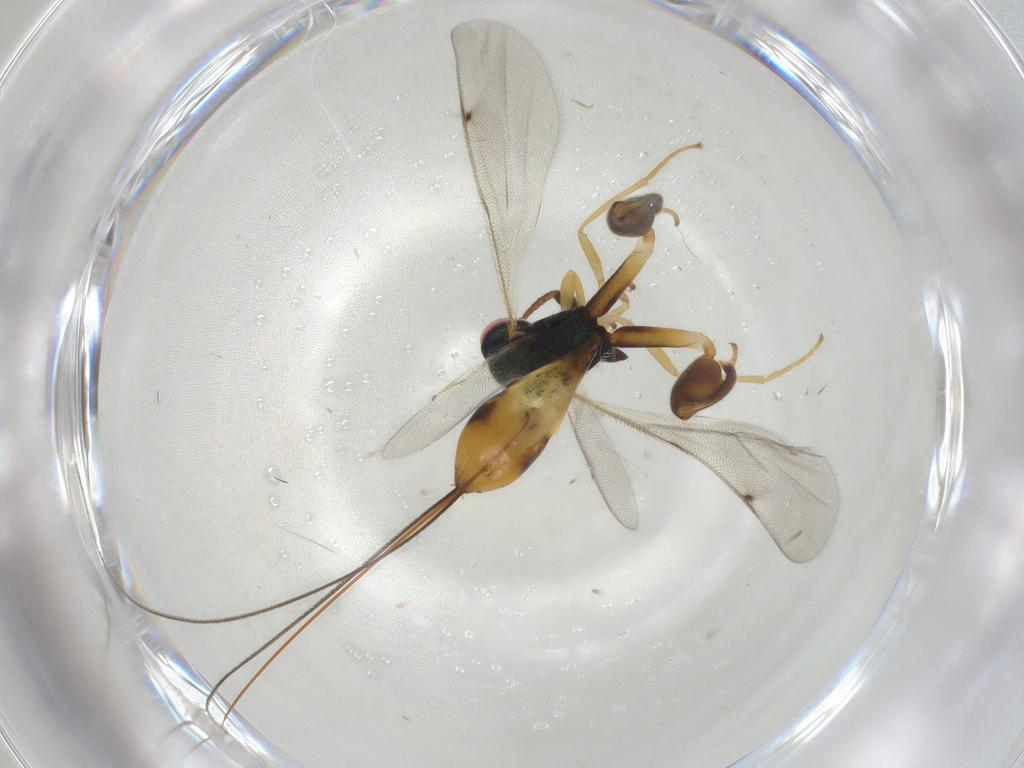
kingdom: Animalia
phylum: Arthropoda
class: Insecta
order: Hymenoptera
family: Torymidae
